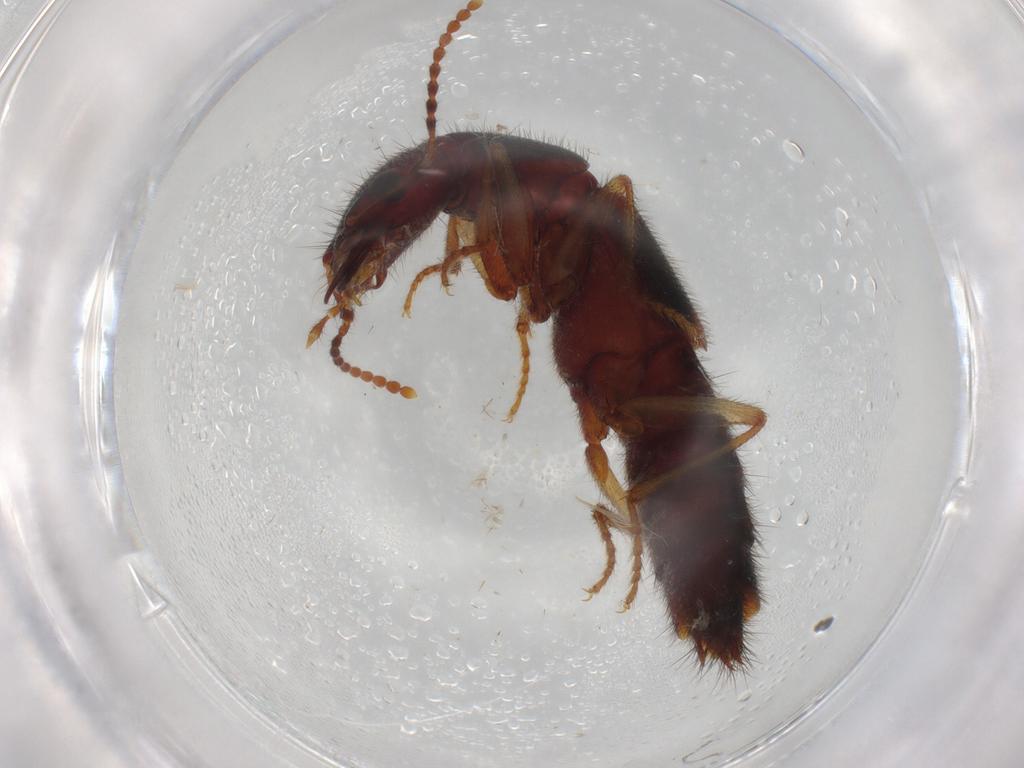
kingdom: Animalia
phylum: Arthropoda
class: Insecta
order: Coleoptera
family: Staphylinidae
